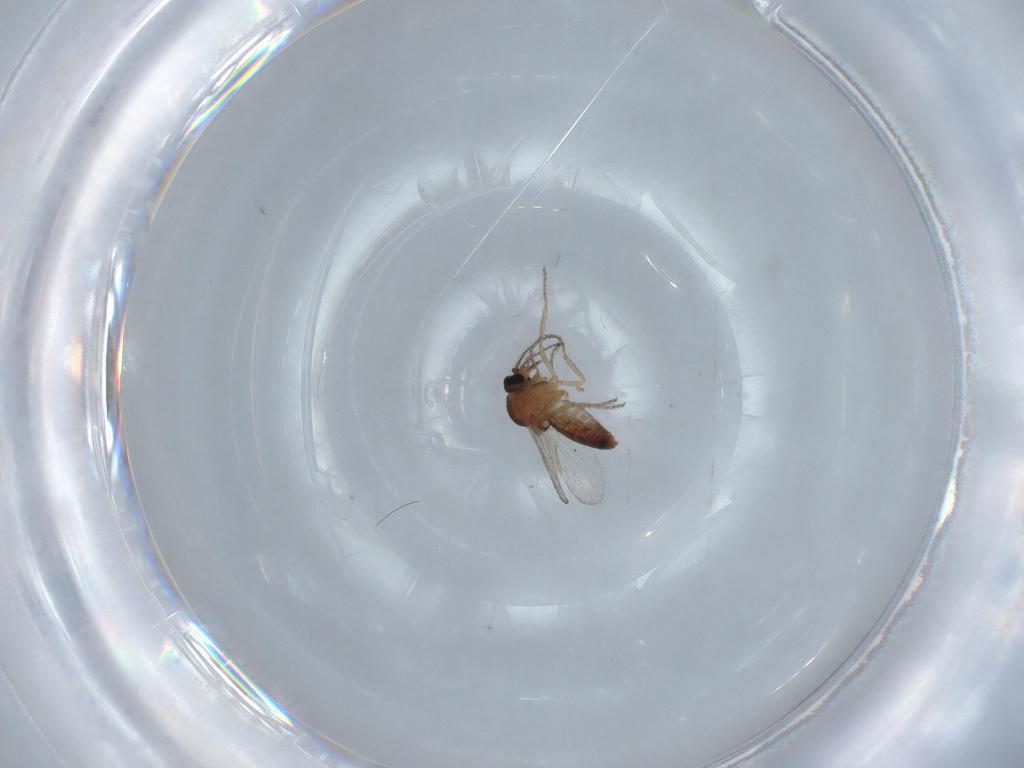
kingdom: Animalia
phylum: Arthropoda
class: Insecta
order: Diptera
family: Ceratopogonidae
